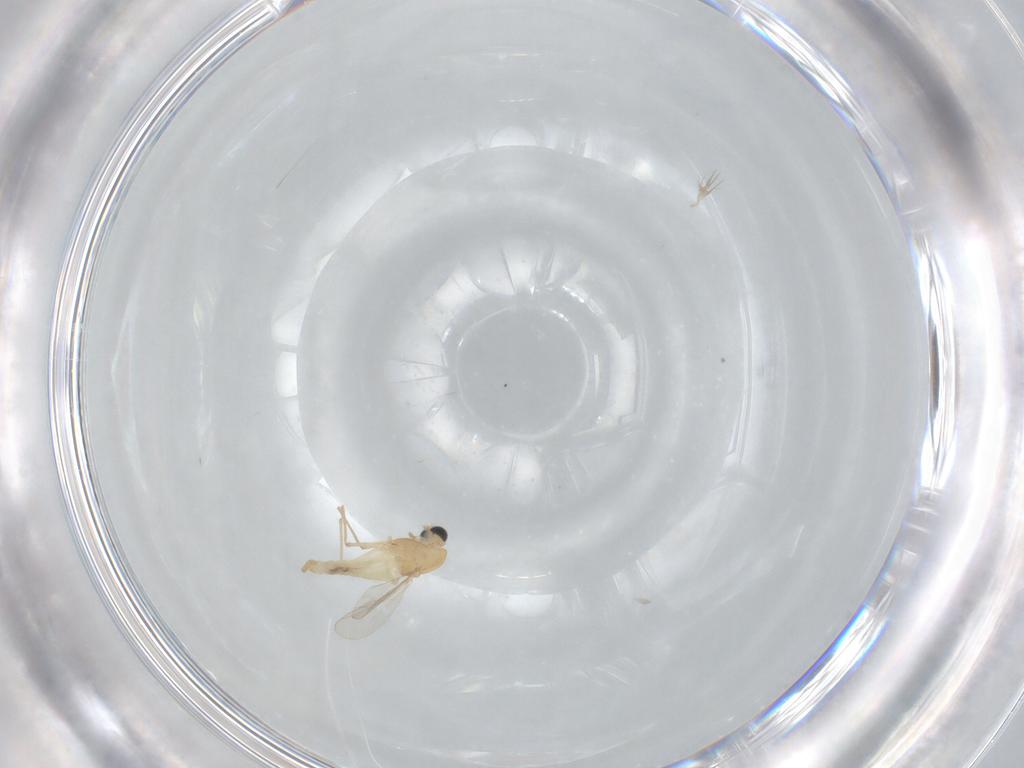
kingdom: Animalia
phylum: Arthropoda
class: Insecta
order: Diptera
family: Chironomidae
